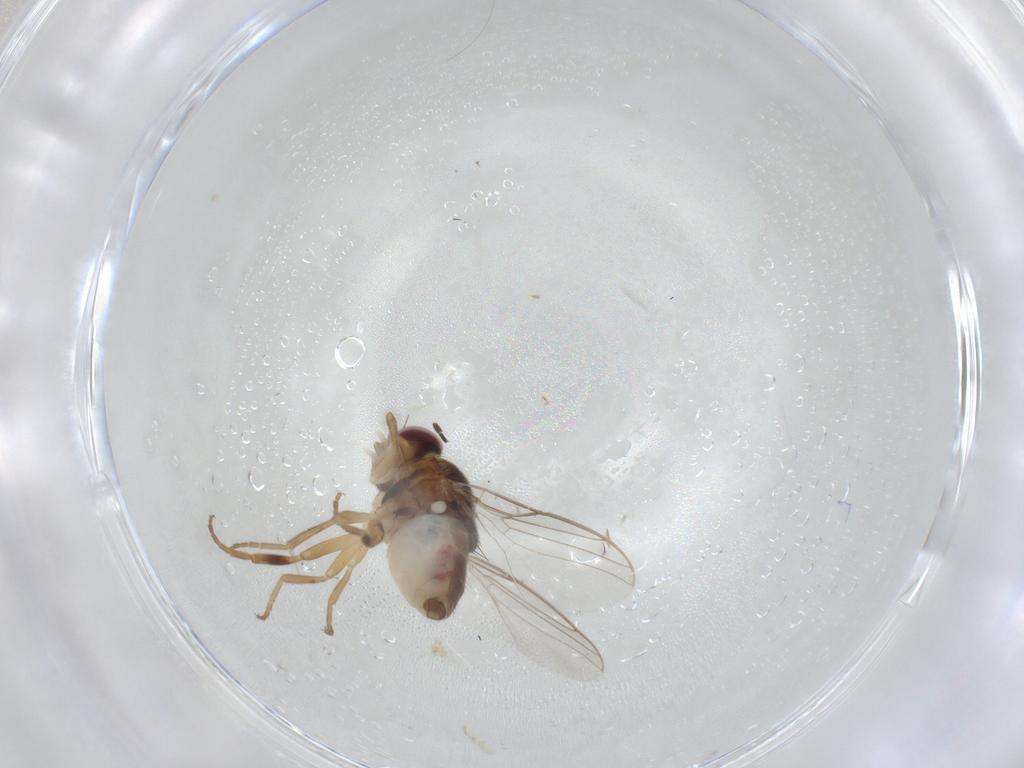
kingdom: Animalia
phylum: Arthropoda
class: Insecta
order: Diptera
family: Chloropidae
